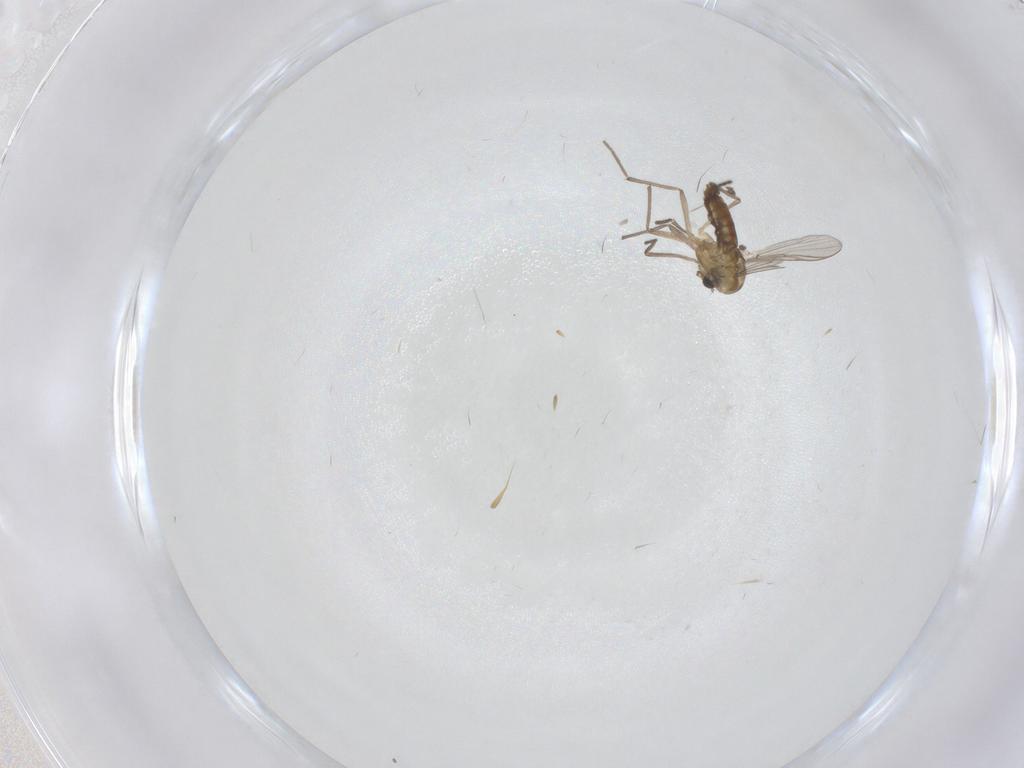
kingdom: Animalia
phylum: Arthropoda
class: Insecta
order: Diptera
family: Chironomidae
